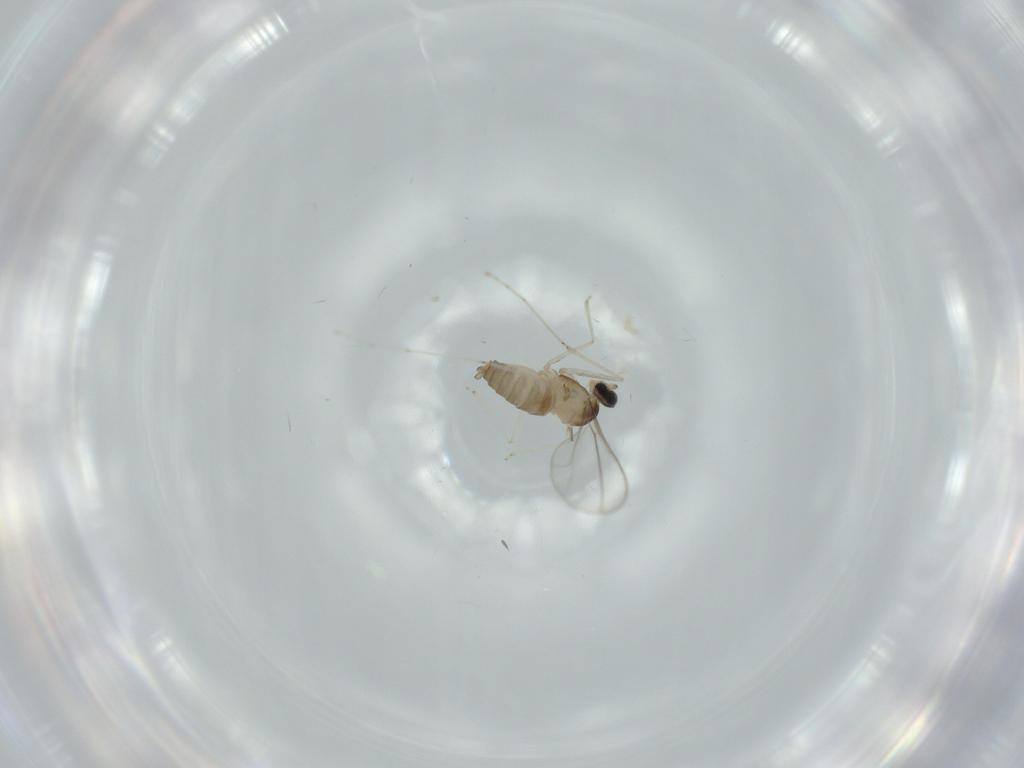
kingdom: Animalia
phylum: Arthropoda
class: Insecta
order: Diptera
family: Cecidomyiidae
